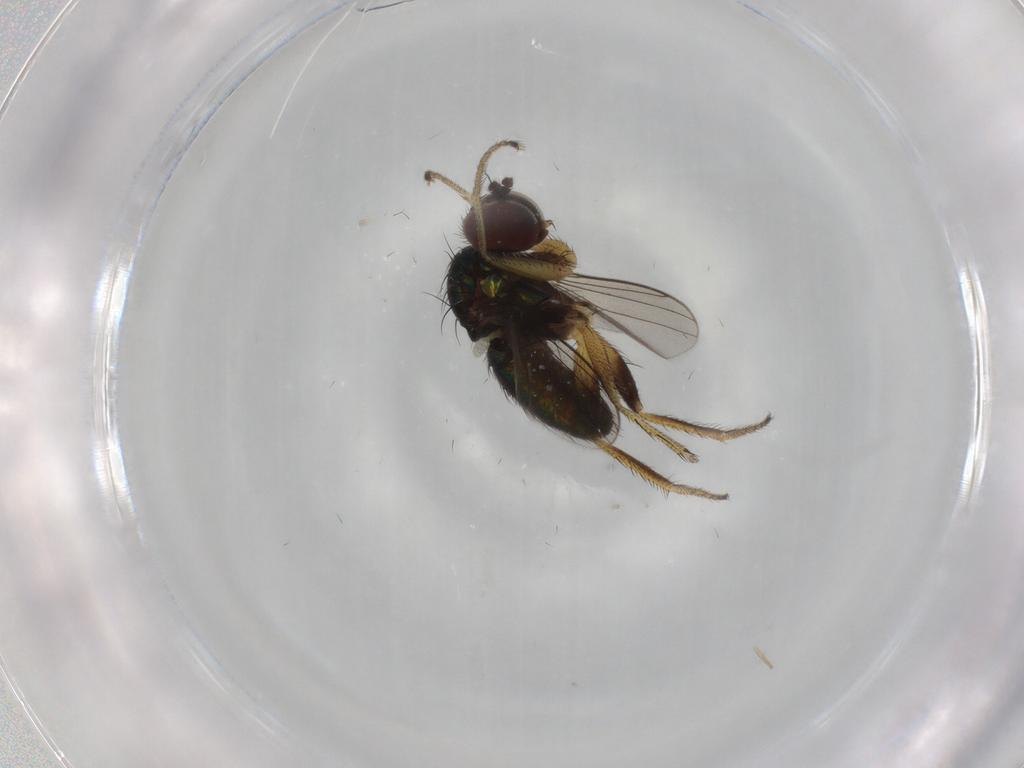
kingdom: Animalia
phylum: Arthropoda
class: Insecta
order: Diptera
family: Dolichopodidae
